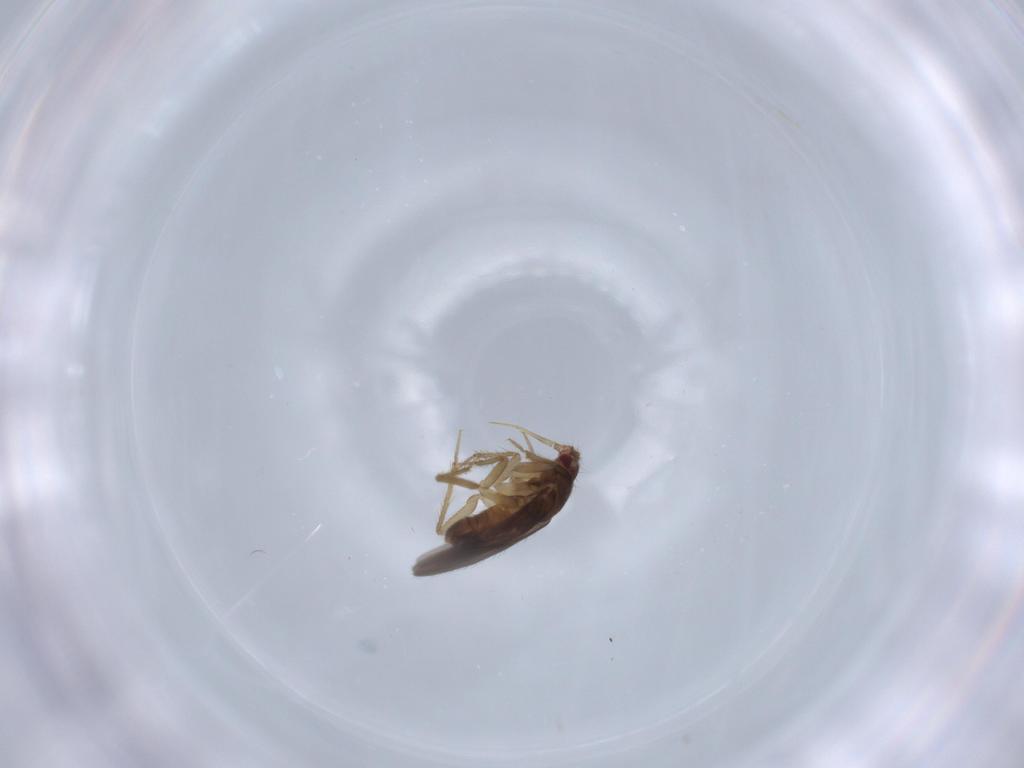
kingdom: Animalia
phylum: Arthropoda
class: Insecta
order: Hemiptera
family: Ceratocombidae
